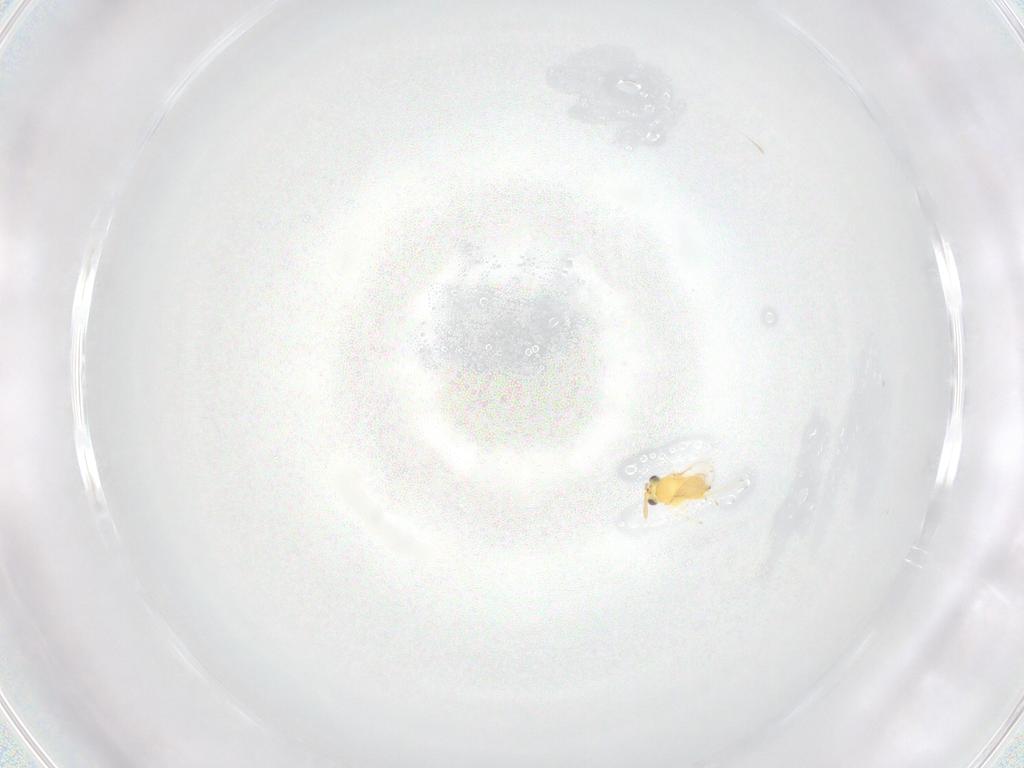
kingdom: Animalia
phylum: Arthropoda
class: Insecta
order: Hymenoptera
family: Aphelinidae
